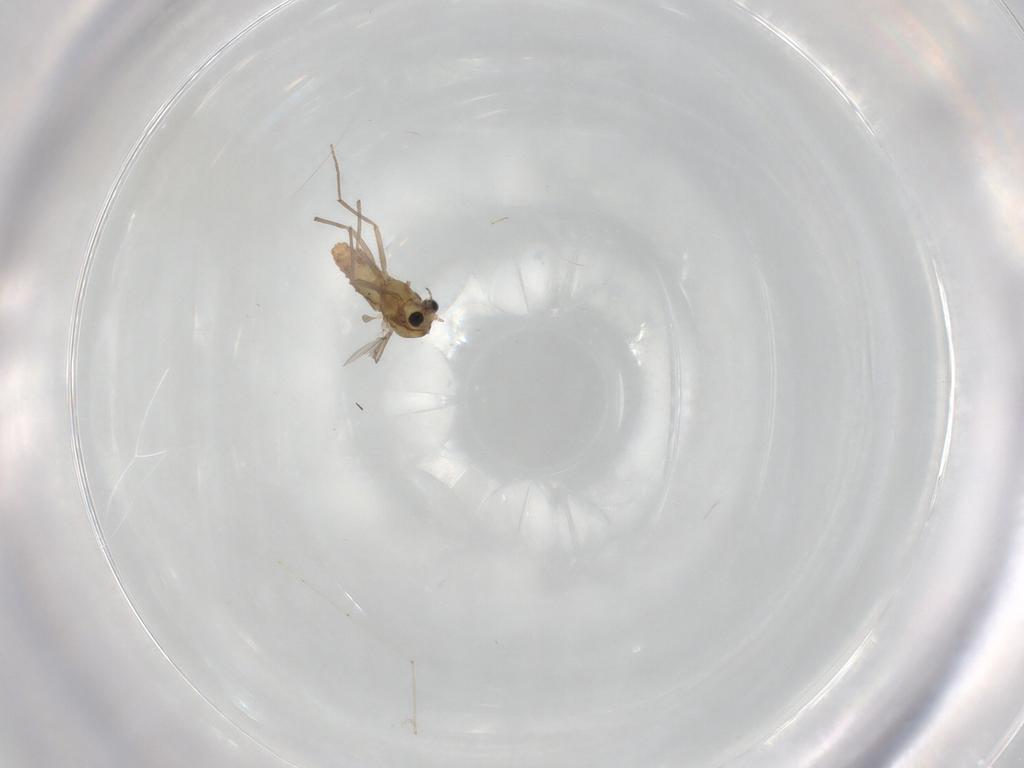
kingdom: Animalia
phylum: Arthropoda
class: Insecta
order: Diptera
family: Chironomidae
